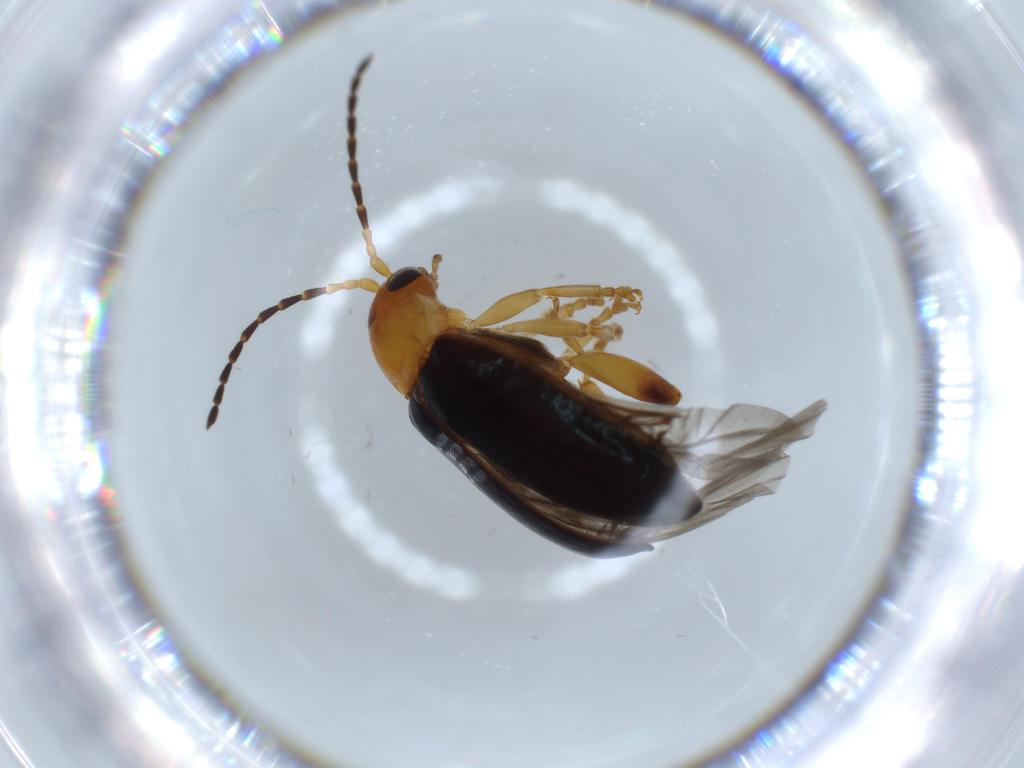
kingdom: Animalia
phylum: Arthropoda
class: Insecta
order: Coleoptera
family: Chrysomelidae
